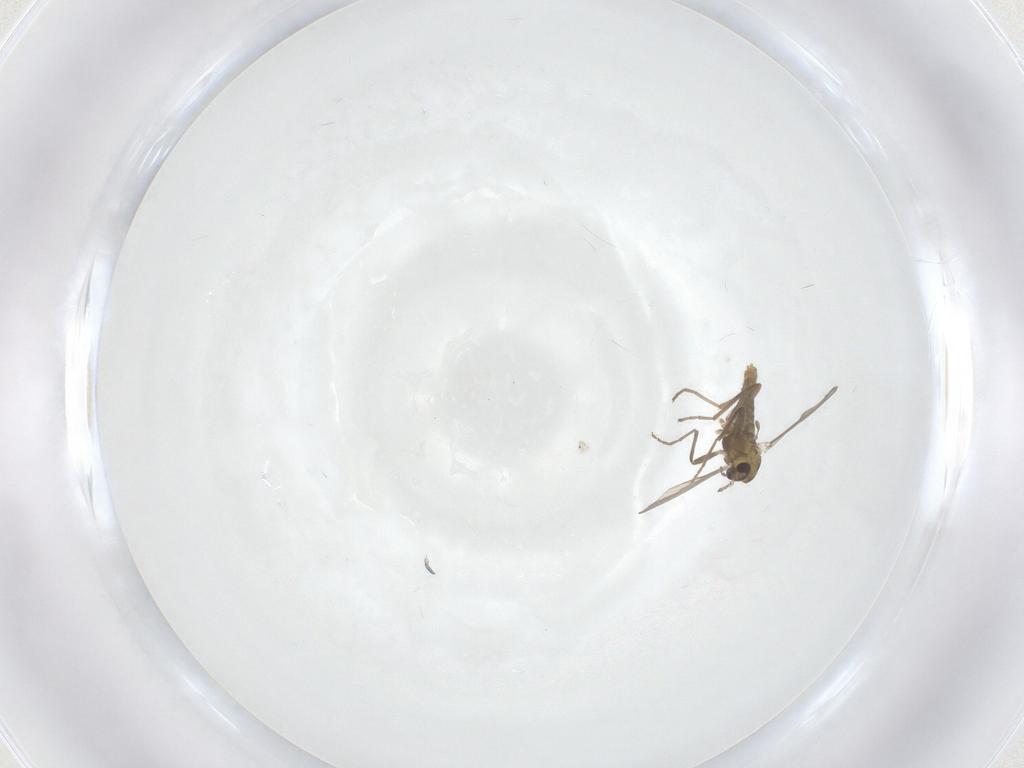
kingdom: Animalia
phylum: Arthropoda
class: Insecta
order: Diptera
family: Chironomidae
